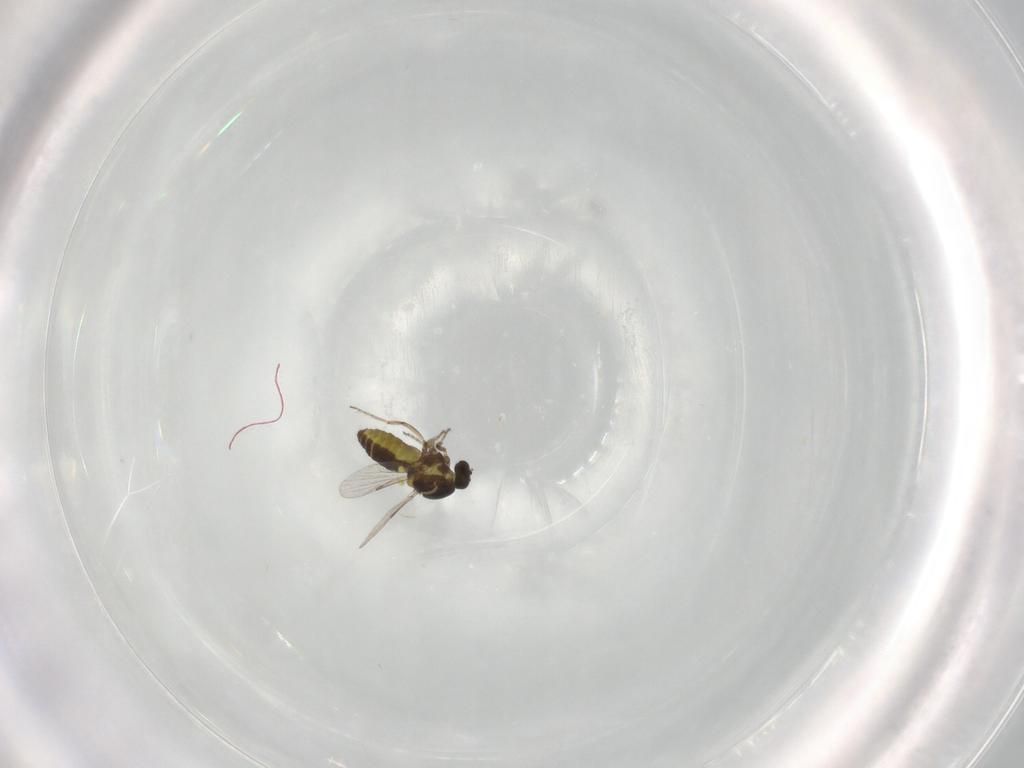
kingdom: Animalia
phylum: Arthropoda
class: Insecta
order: Diptera
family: Ceratopogonidae
